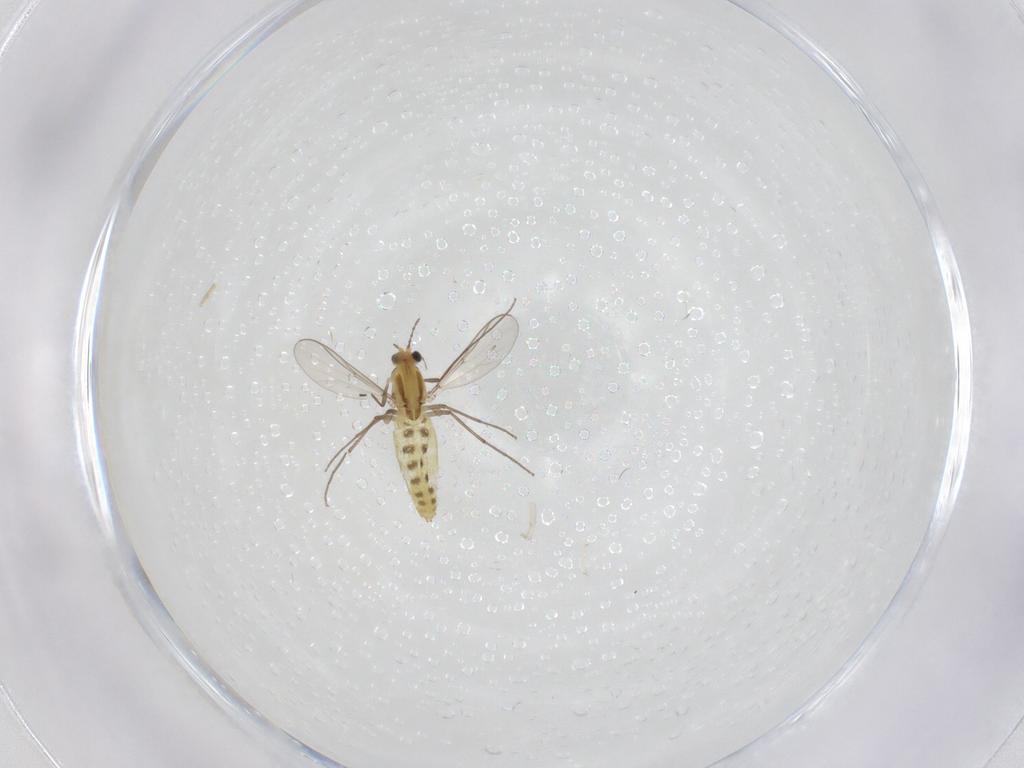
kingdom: Animalia
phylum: Arthropoda
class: Insecta
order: Diptera
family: Chironomidae
